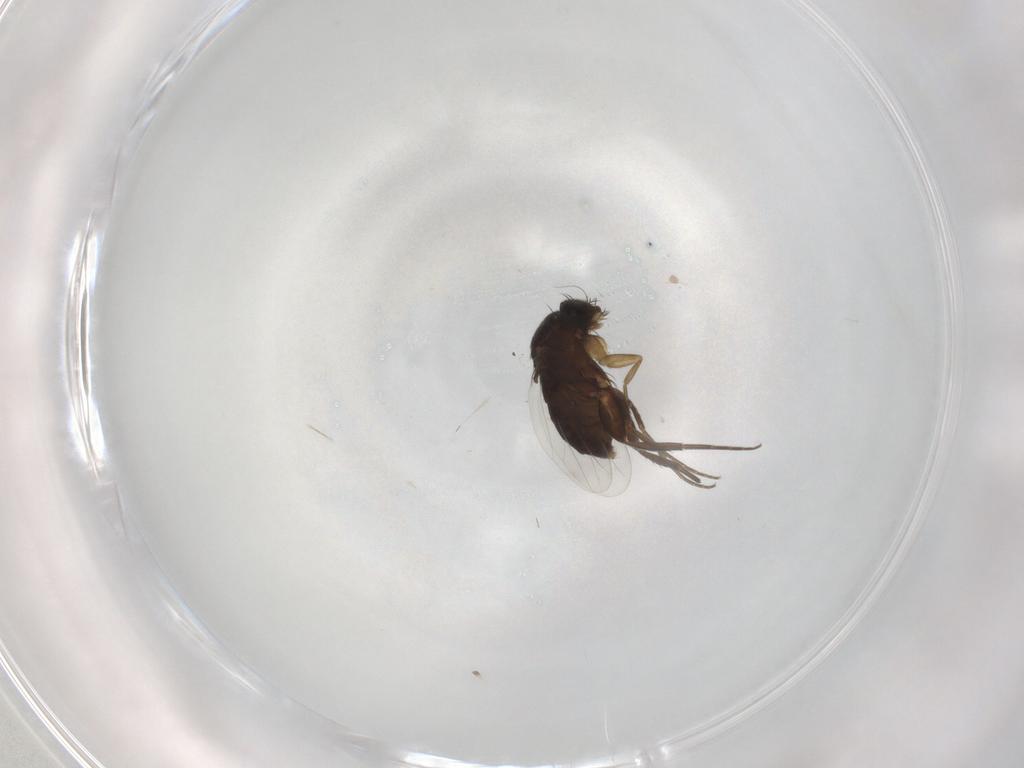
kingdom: Animalia
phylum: Arthropoda
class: Insecta
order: Diptera
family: Phoridae
